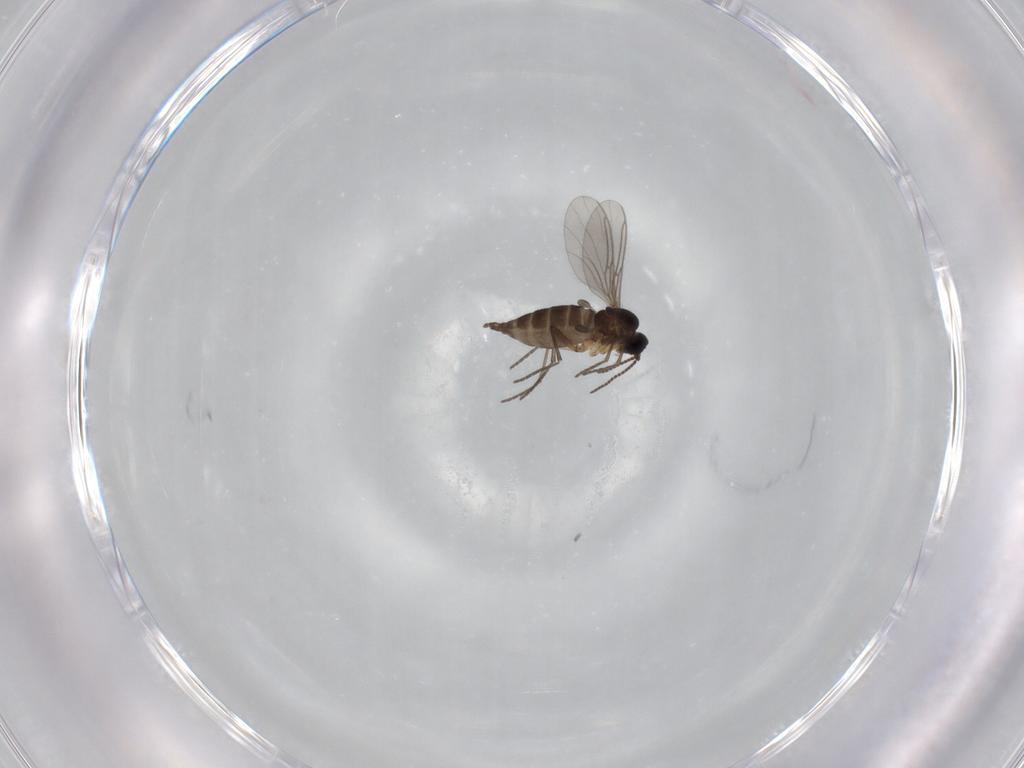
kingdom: Animalia
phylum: Arthropoda
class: Insecta
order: Diptera
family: Sciaridae
